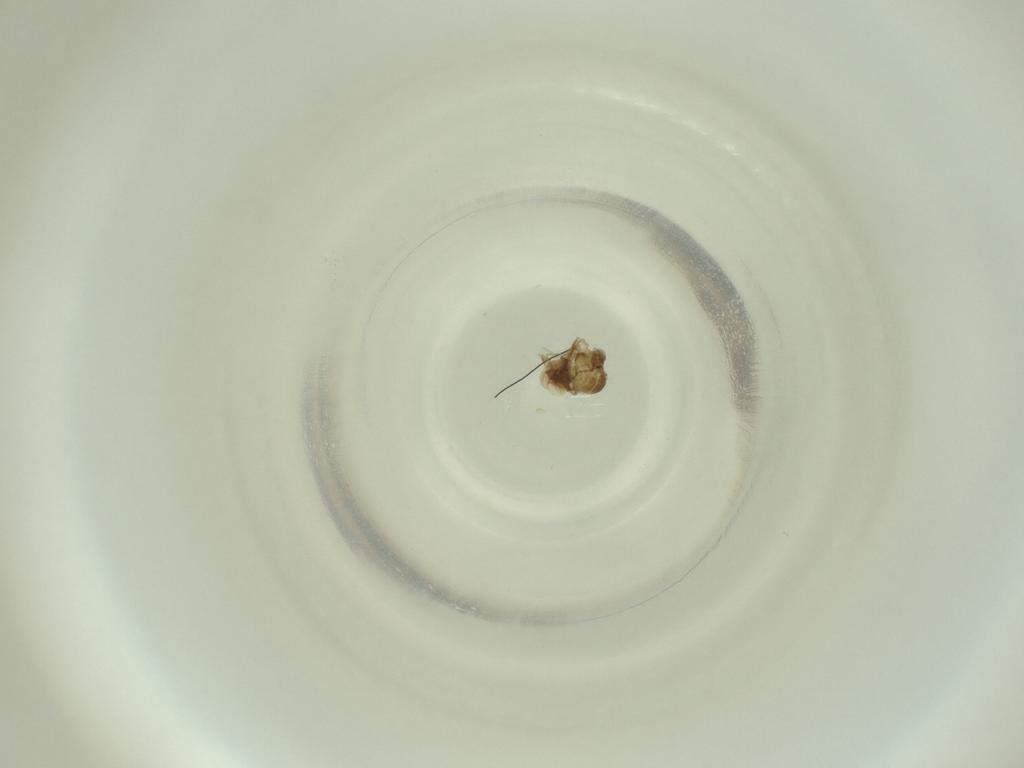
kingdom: Animalia
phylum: Arthropoda
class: Insecta
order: Diptera
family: Cecidomyiidae
